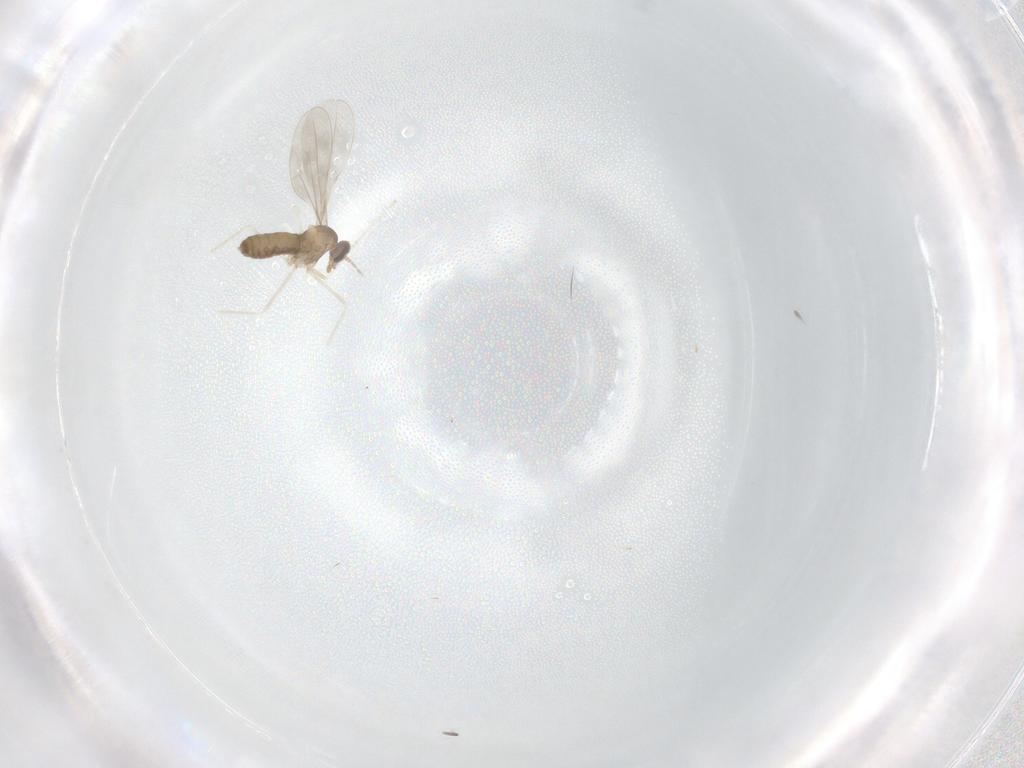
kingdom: Animalia
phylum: Arthropoda
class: Insecta
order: Diptera
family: Cecidomyiidae
